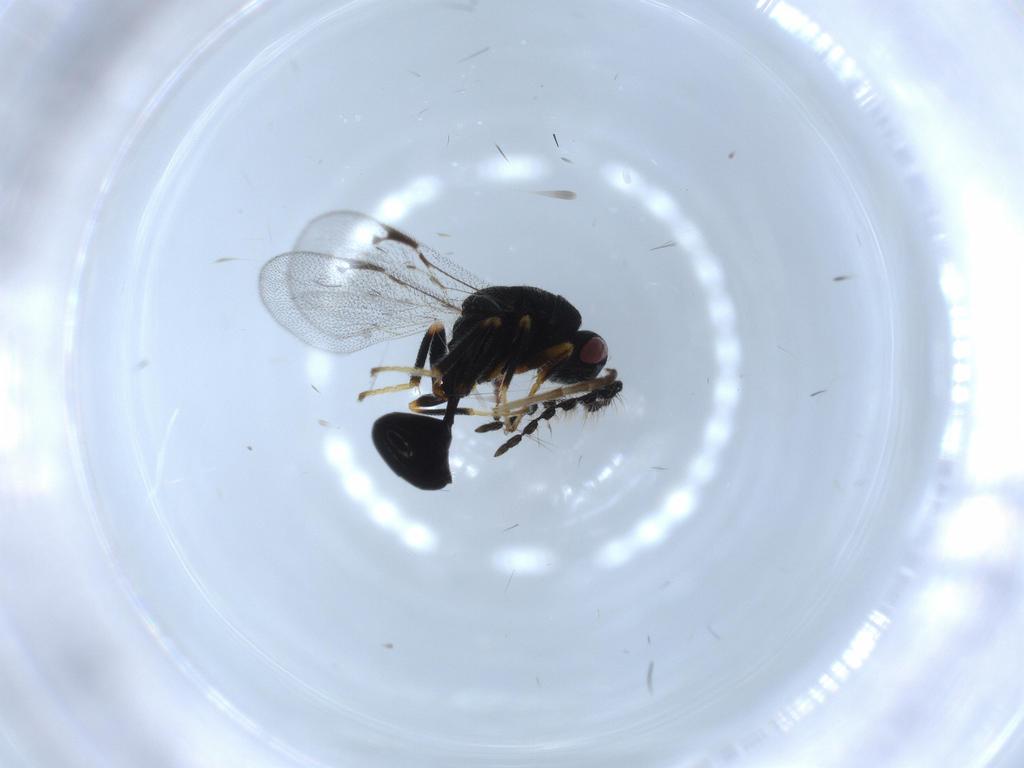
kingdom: Animalia
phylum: Arthropoda
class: Insecta
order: Hymenoptera
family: Ichneumonidae
